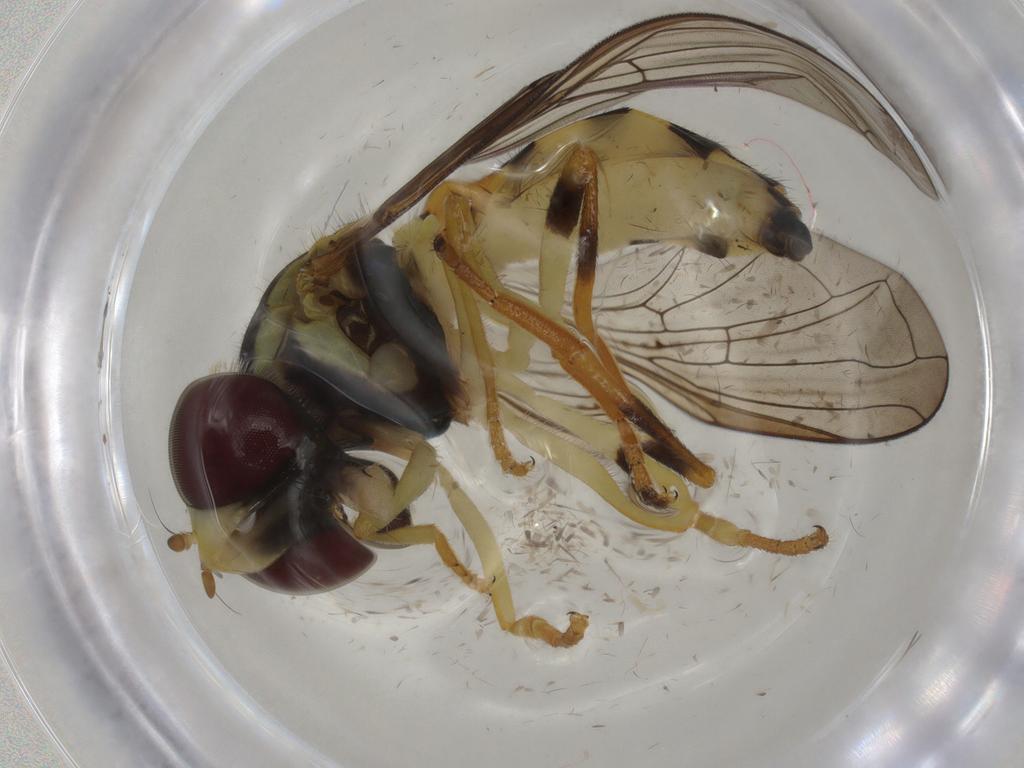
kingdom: Animalia
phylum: Arthropoda
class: Insecta
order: Diptera
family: Syrphidae
